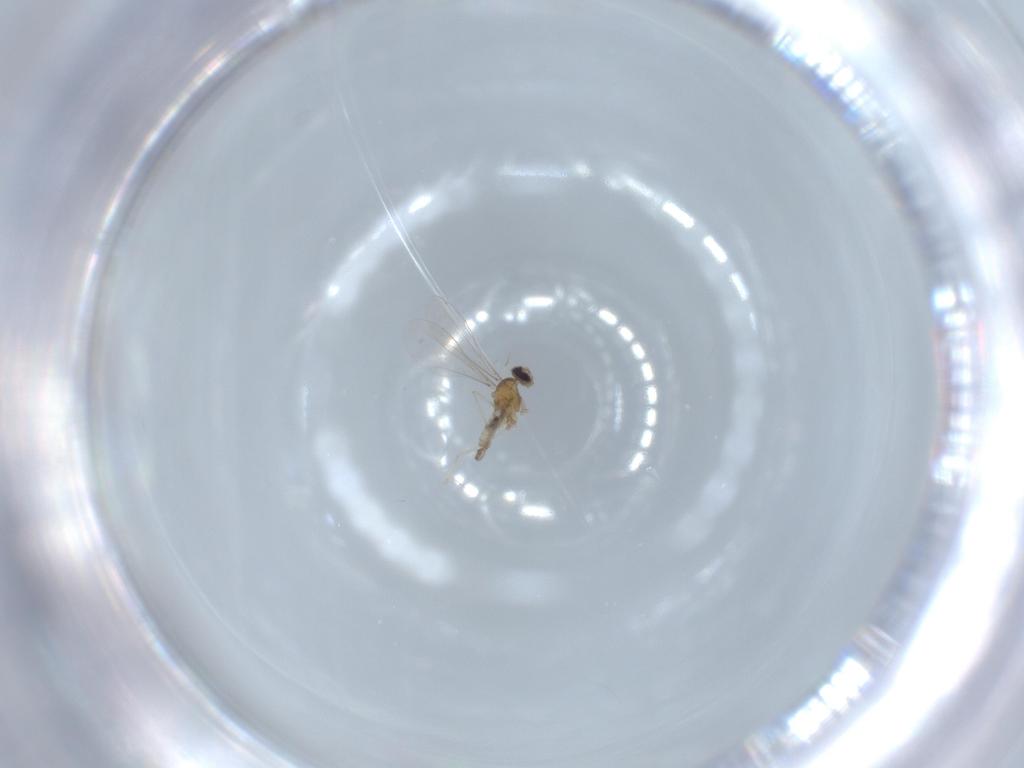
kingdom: Animalia
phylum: Arthropoda
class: Insecta
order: Diptera
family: Cecidomyiidae
